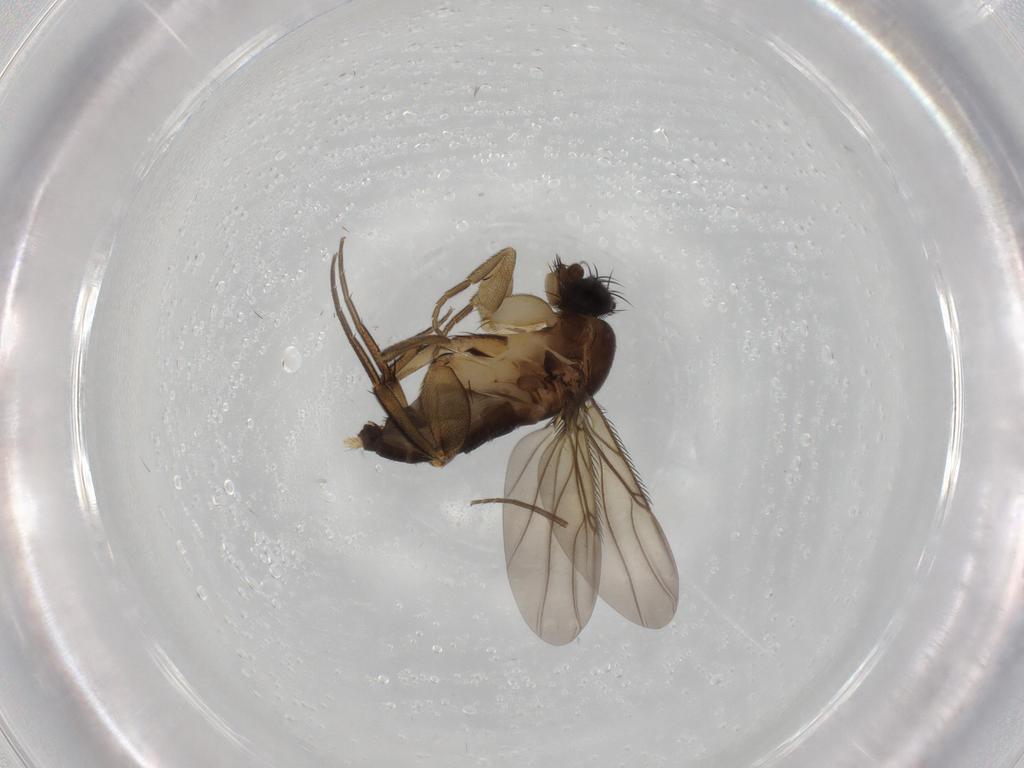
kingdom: Animalia
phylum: Arthropoda
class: Insecta
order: Diptera
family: Phoridae
